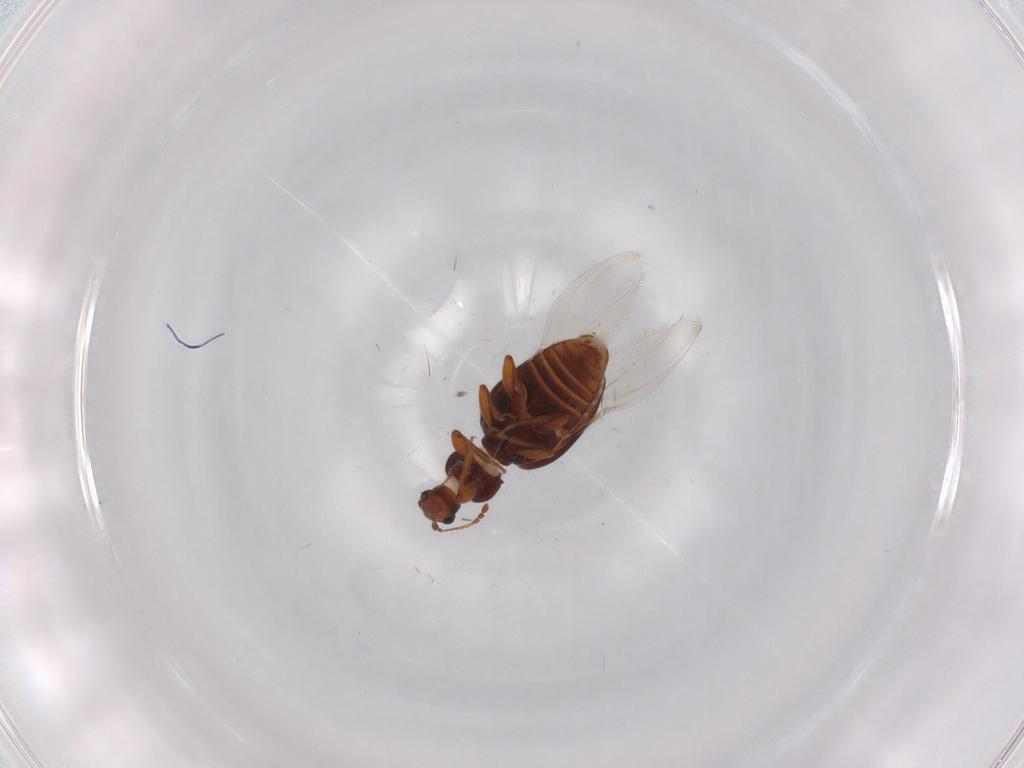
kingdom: Animalia
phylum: Arthropoda
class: Insecta
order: Coleoptera
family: Latridiidae
